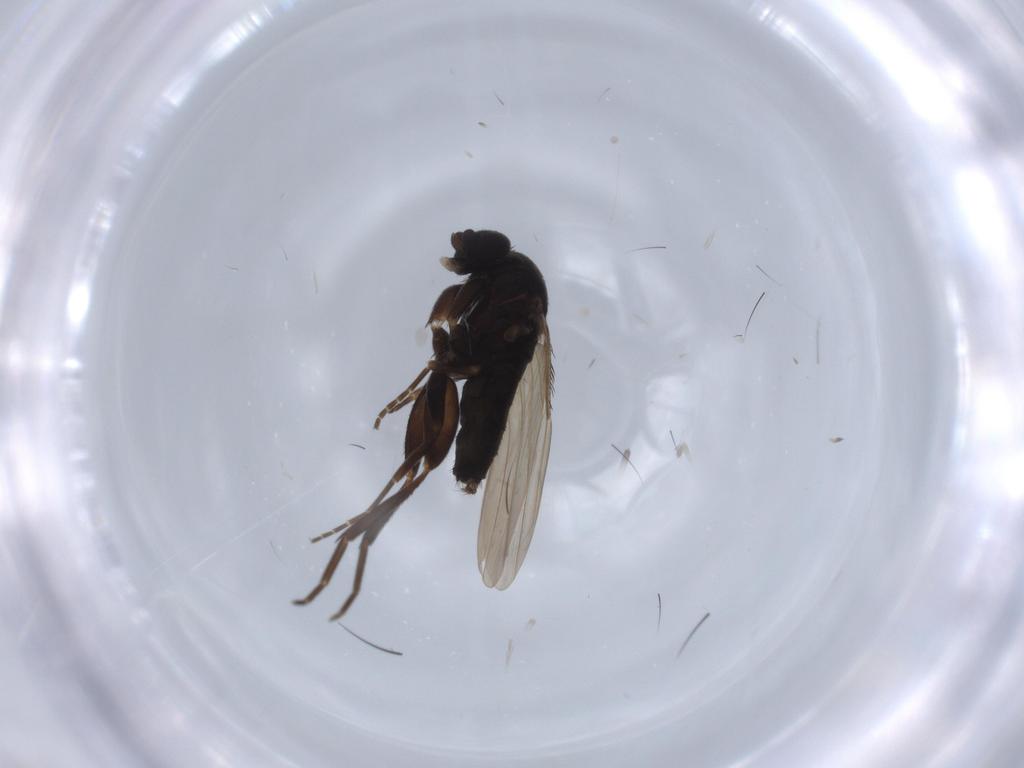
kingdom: Animalia
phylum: Arthropoda
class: Insecta
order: Diptera
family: Phoridae
